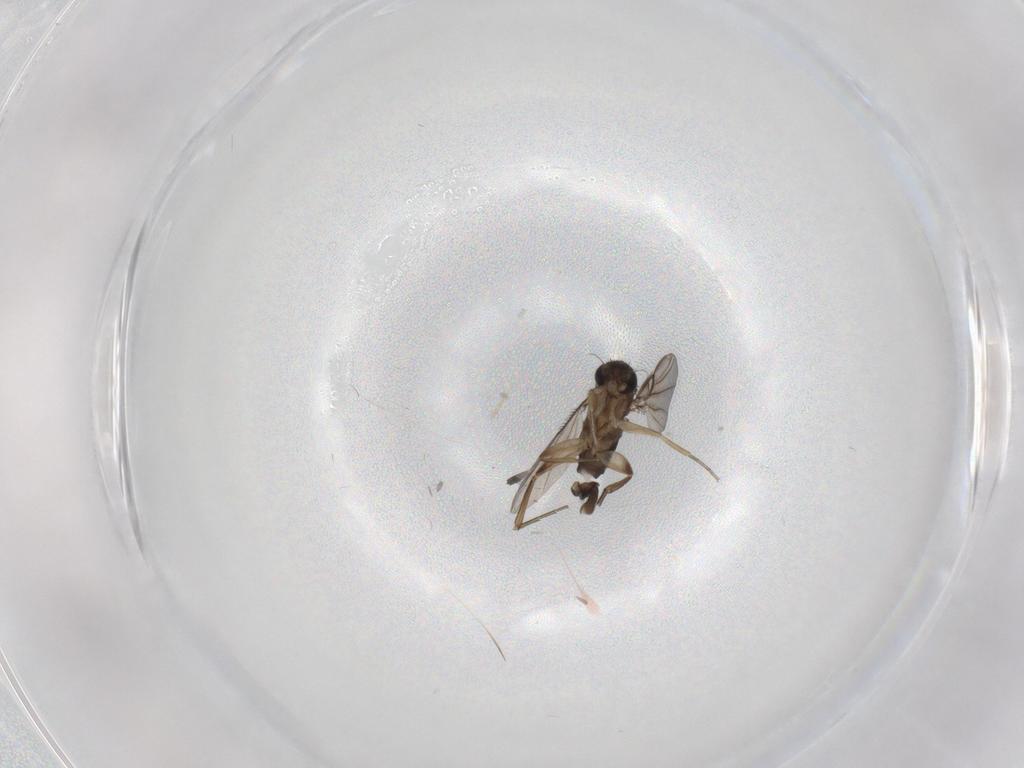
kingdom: Animalia
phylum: Arthropoda
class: Insecta
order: Diptera
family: Phoridae
